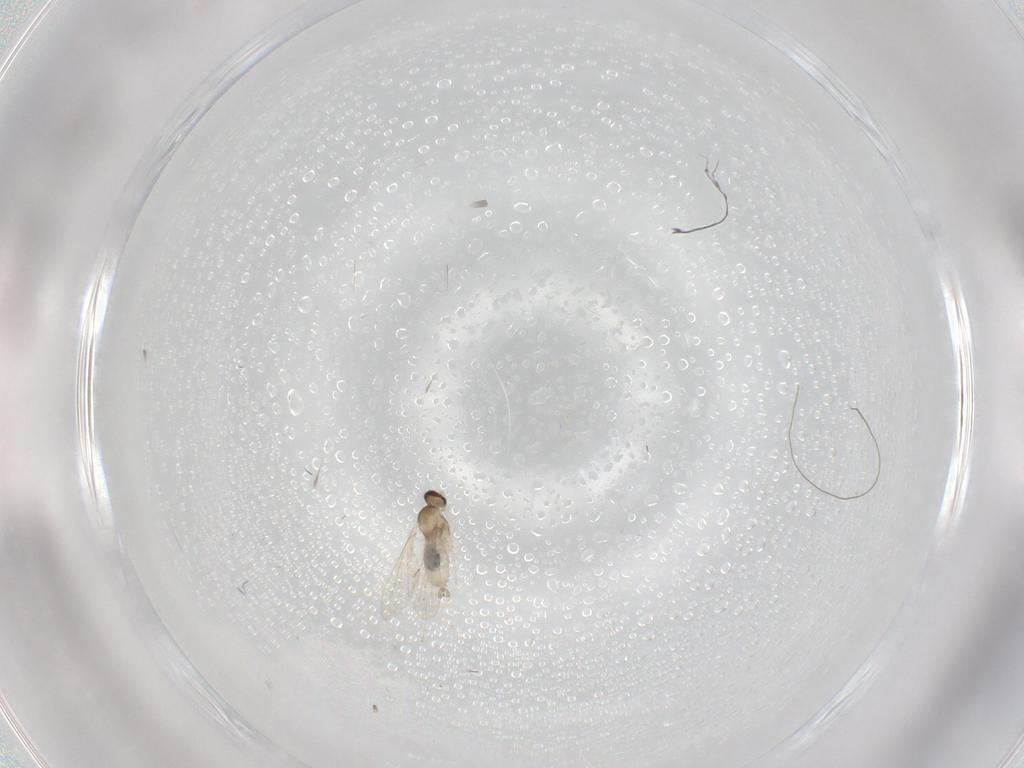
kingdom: Animalia
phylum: Arthropoda
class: Insecta
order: Diptera
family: Cecidomyiidae
